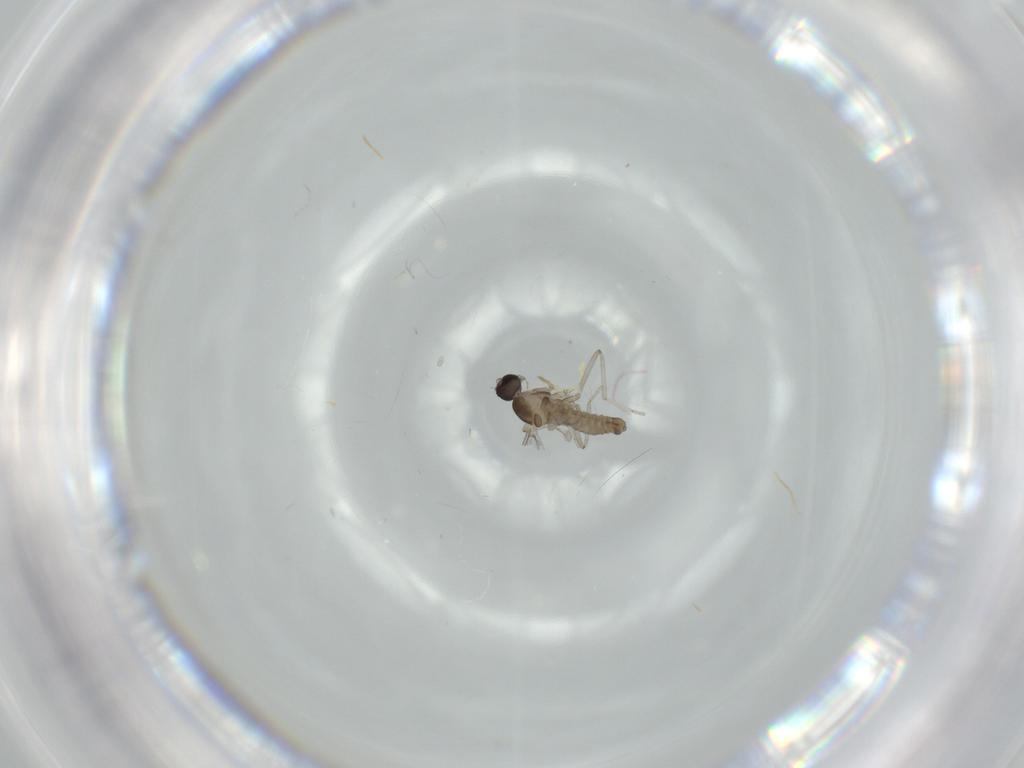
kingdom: Animalia
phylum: Arthropoda
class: Insecta
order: Diptera
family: Cecidomyiidae
